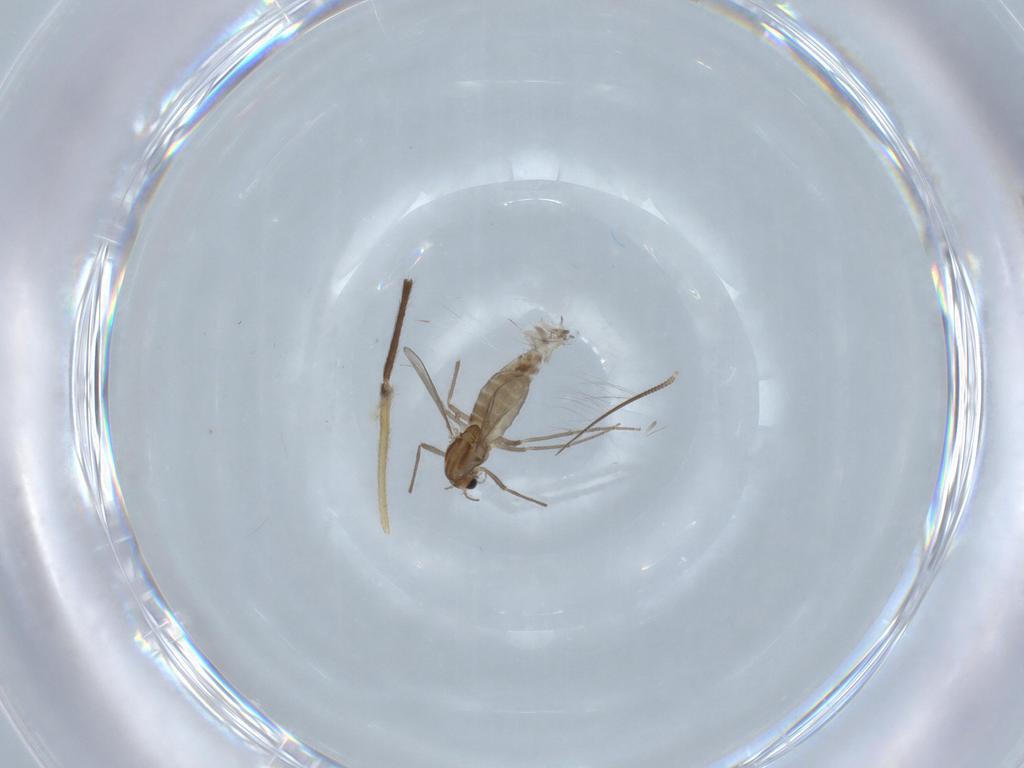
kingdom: Animalia
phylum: Arthropoda
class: Insecta
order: Diptera
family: Chironomidae
